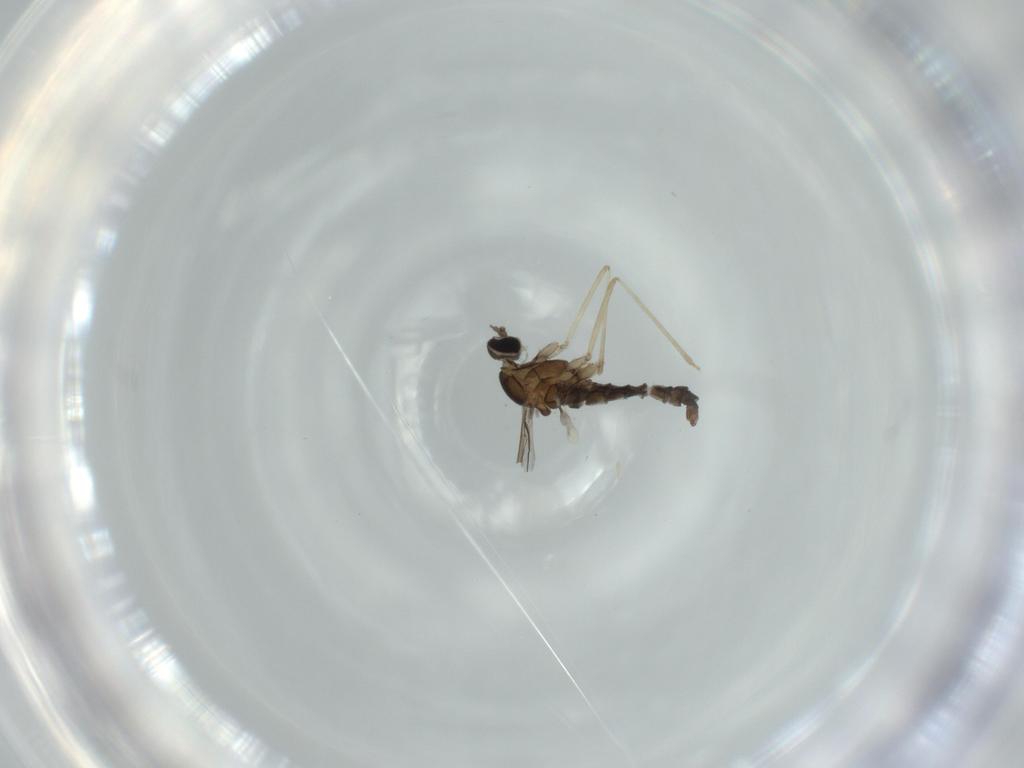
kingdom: Animalia
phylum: Arthropoda
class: Insecta
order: Diptera
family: Cecidomyiidae
